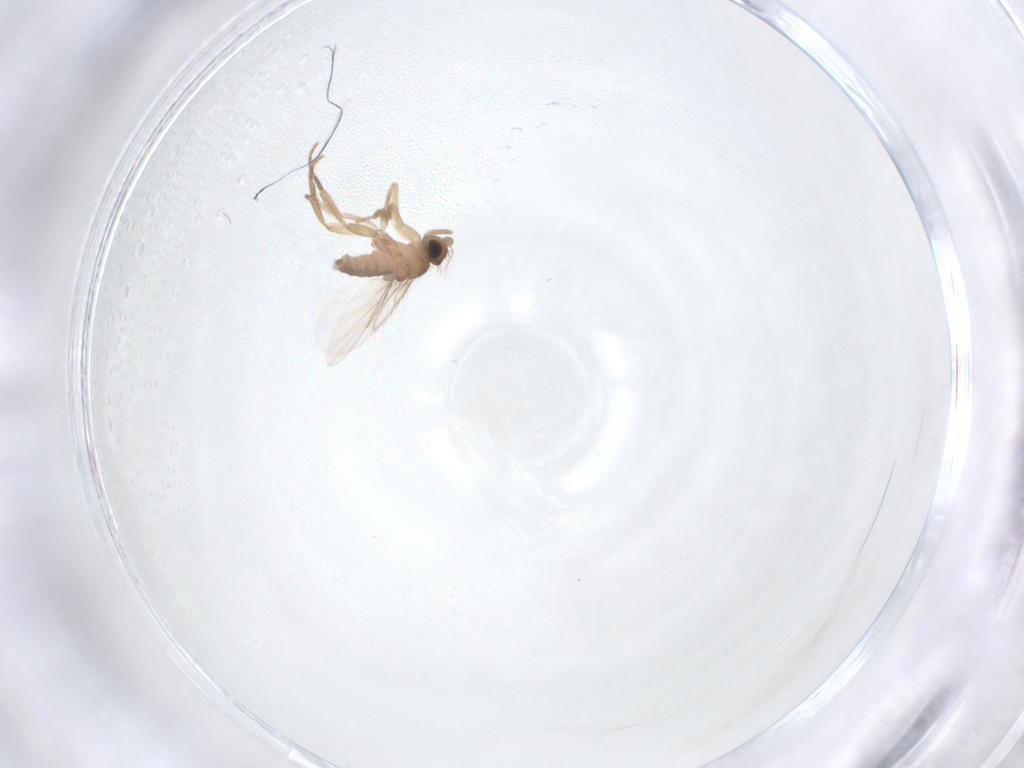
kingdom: Animalia
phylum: Arthropoda
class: Insecta
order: Diptera
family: Phoridae
